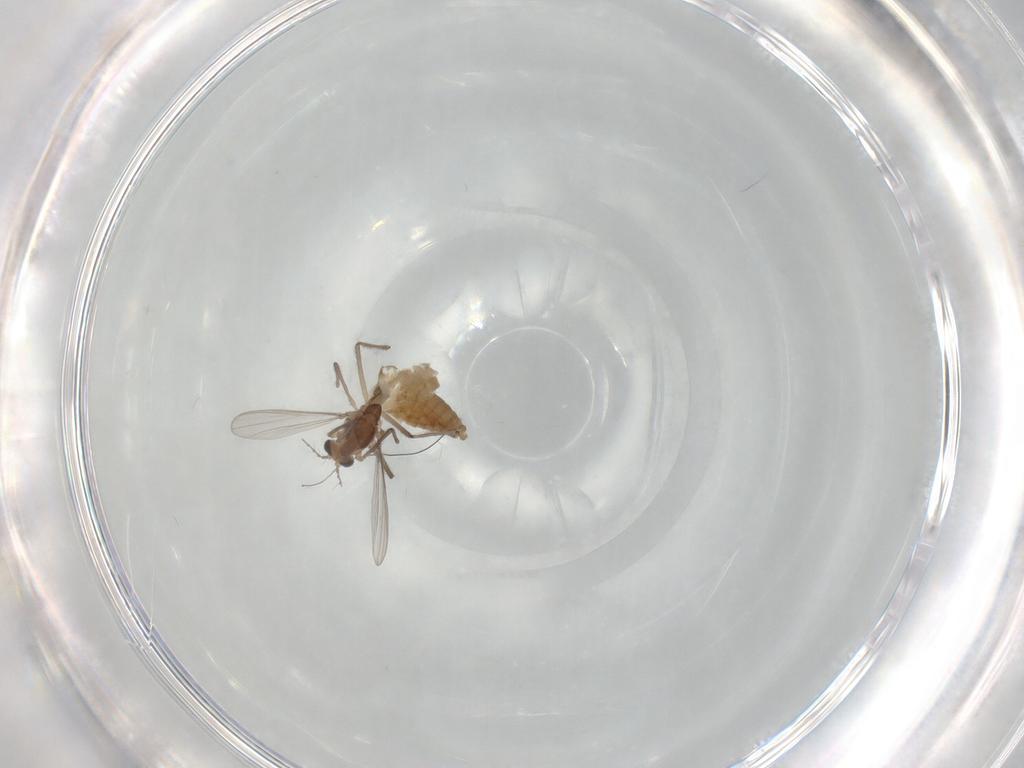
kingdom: Animalia
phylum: Arthropoda
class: Insecta
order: Diptera
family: Chironomidae
